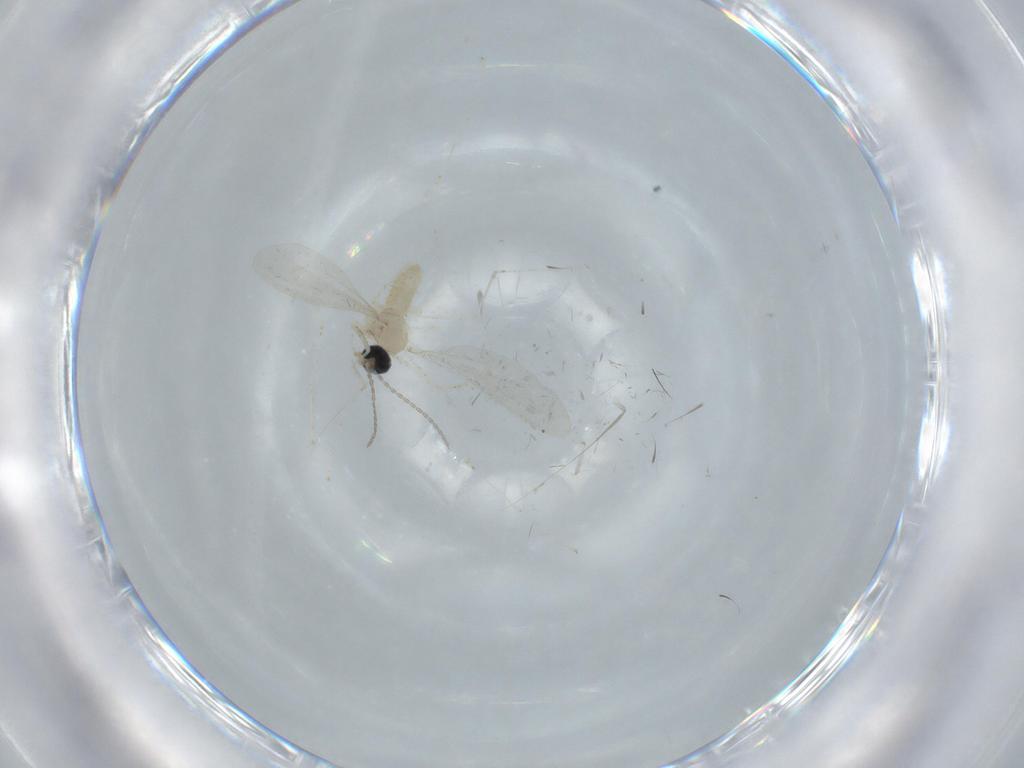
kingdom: Animalia
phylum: Arthropoda
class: Insecta
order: Diptera
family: Cecidomyiidae
